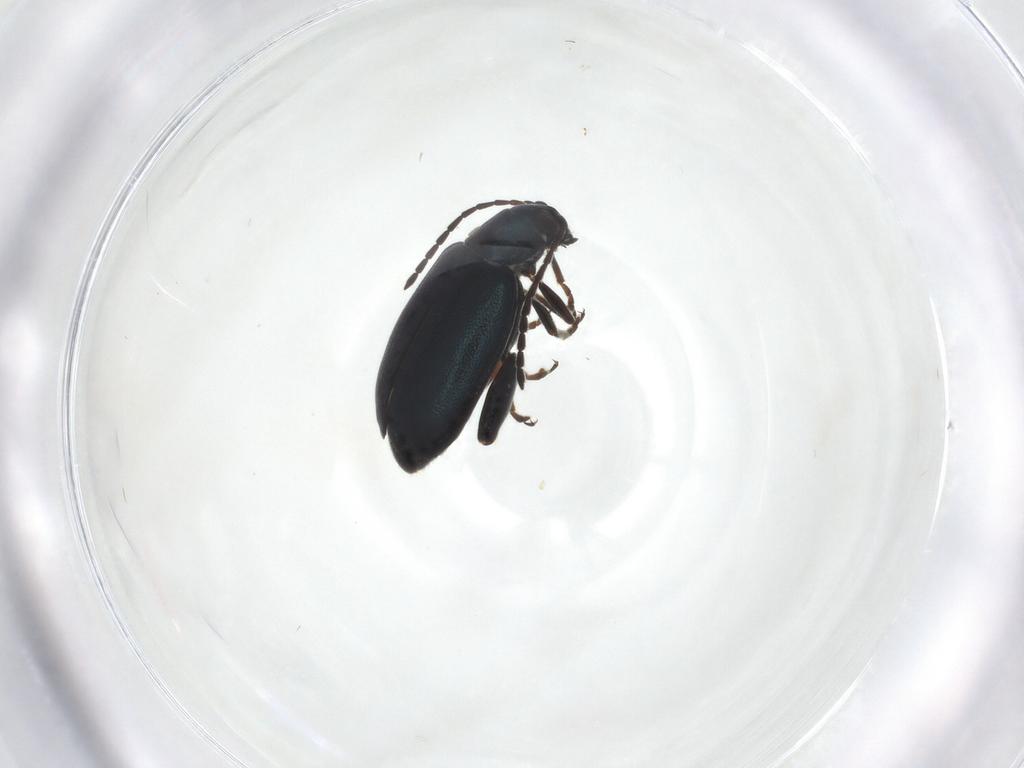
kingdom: Animalia
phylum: Arthropoda
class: Insecta
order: Coleoptera
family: Chrysomelidae
